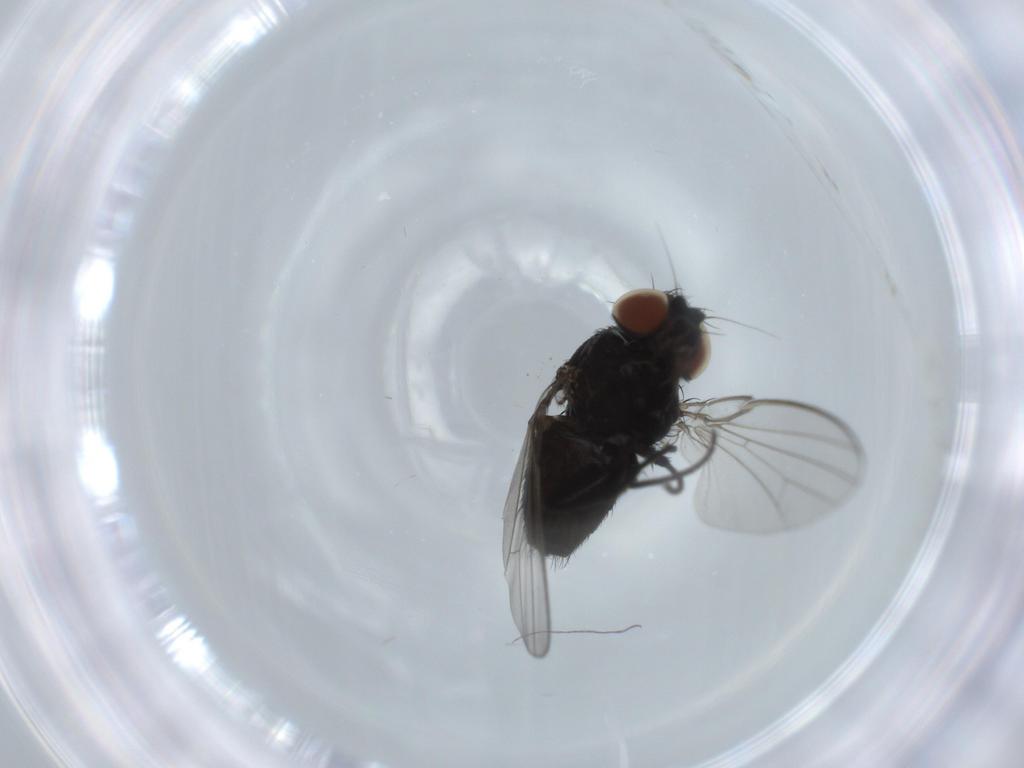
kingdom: Animalia
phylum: Arthropoda
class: Insecta
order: Diptera
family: Milichiidae
